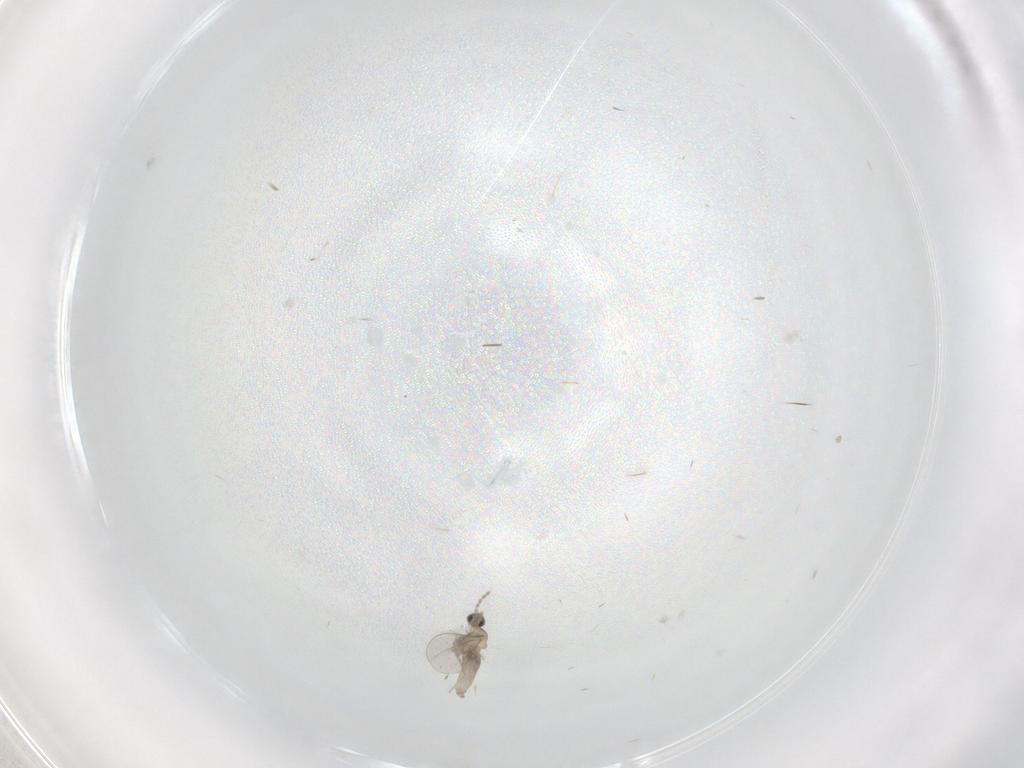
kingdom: Animalia
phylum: Arthropoda
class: Insecta
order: Diptera
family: Cecidomyiidae
